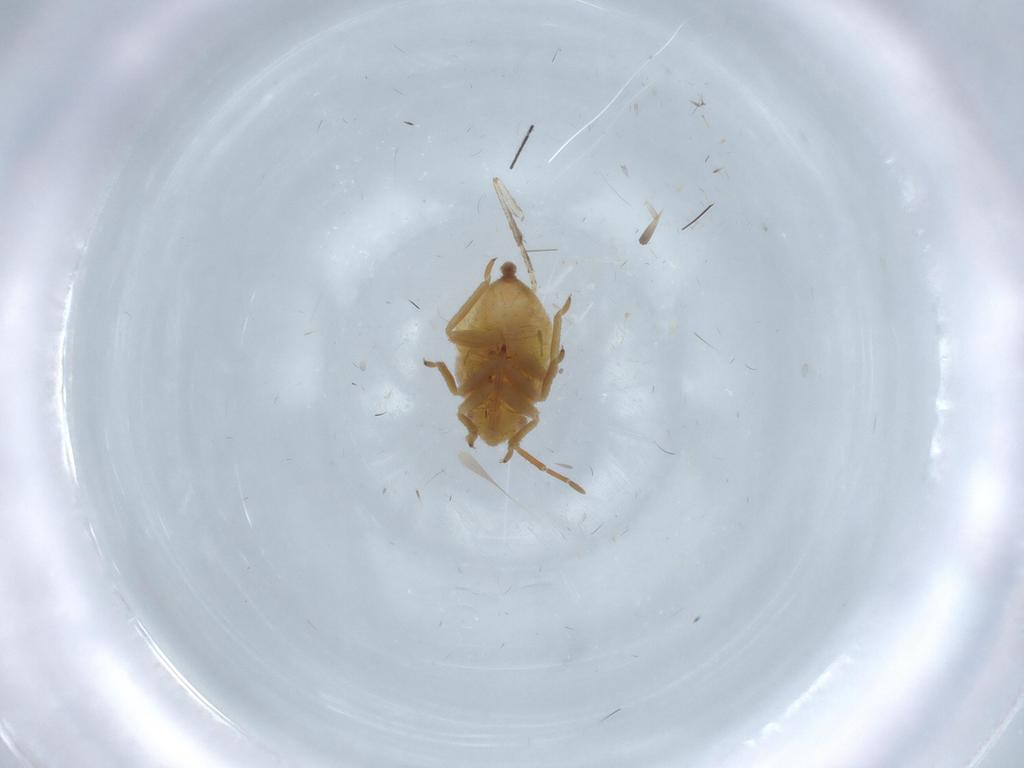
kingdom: Animalia
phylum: Arthropoda
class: Insecta
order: Hemiptera
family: Miridae
